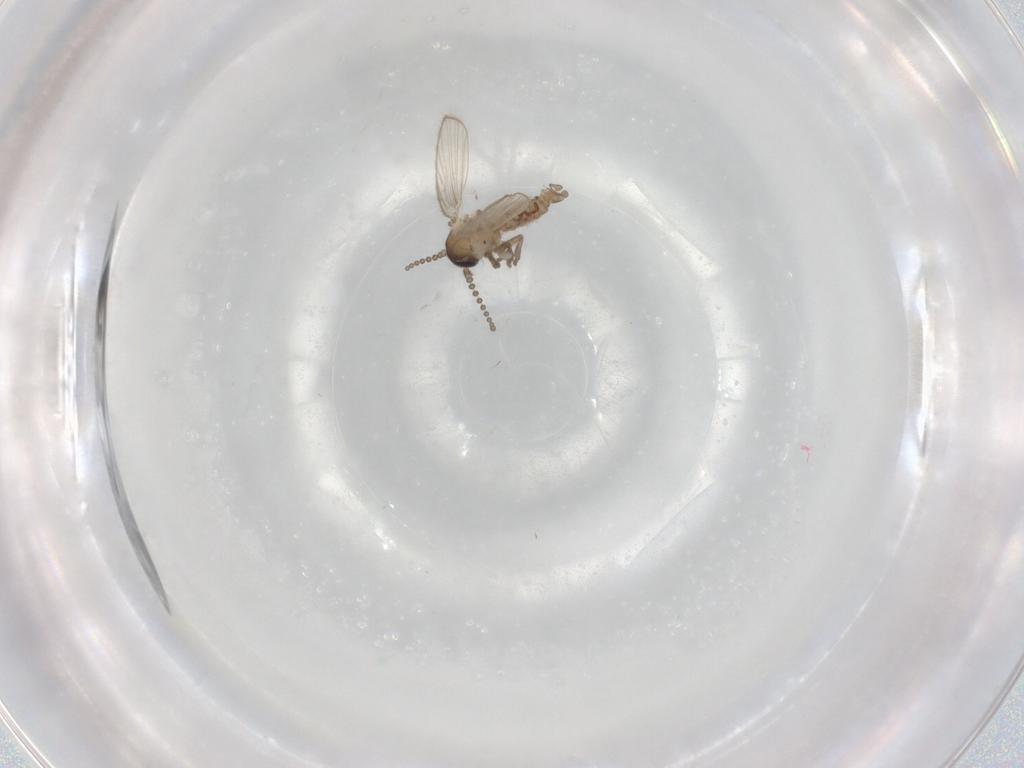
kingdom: Animalia
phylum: Arthropoda
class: Insecta
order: Diptera
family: Psychodidae
